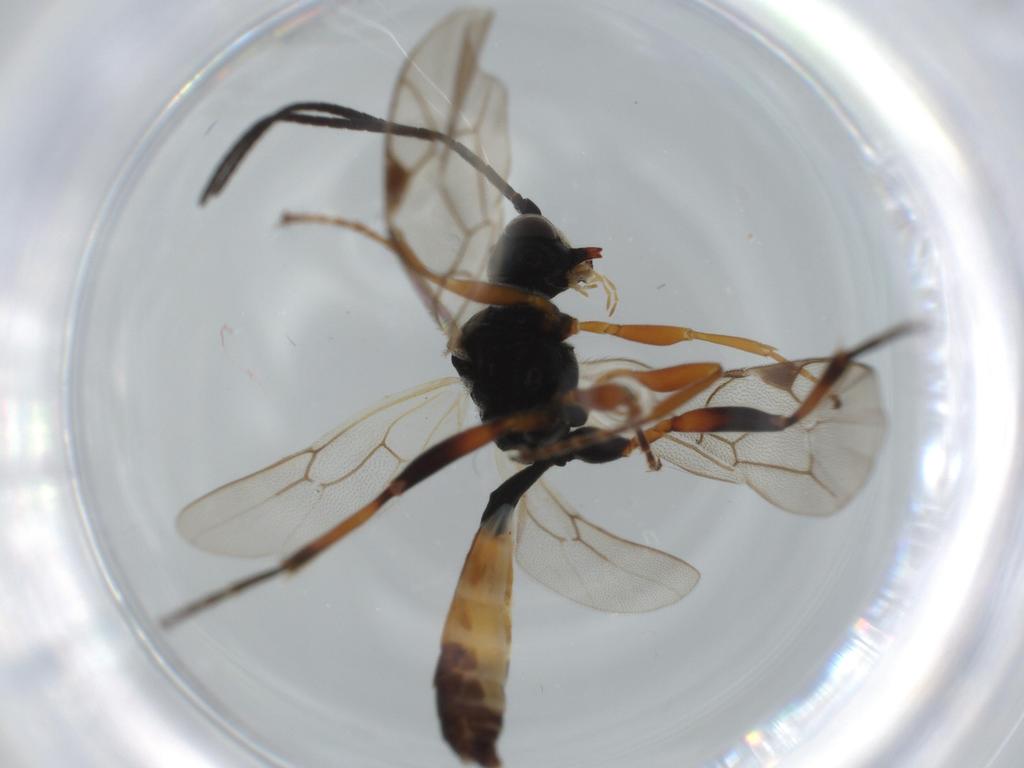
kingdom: Animalia
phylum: Arthropoda
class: Insecta
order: Hymenoptera
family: Ichneumonidae
